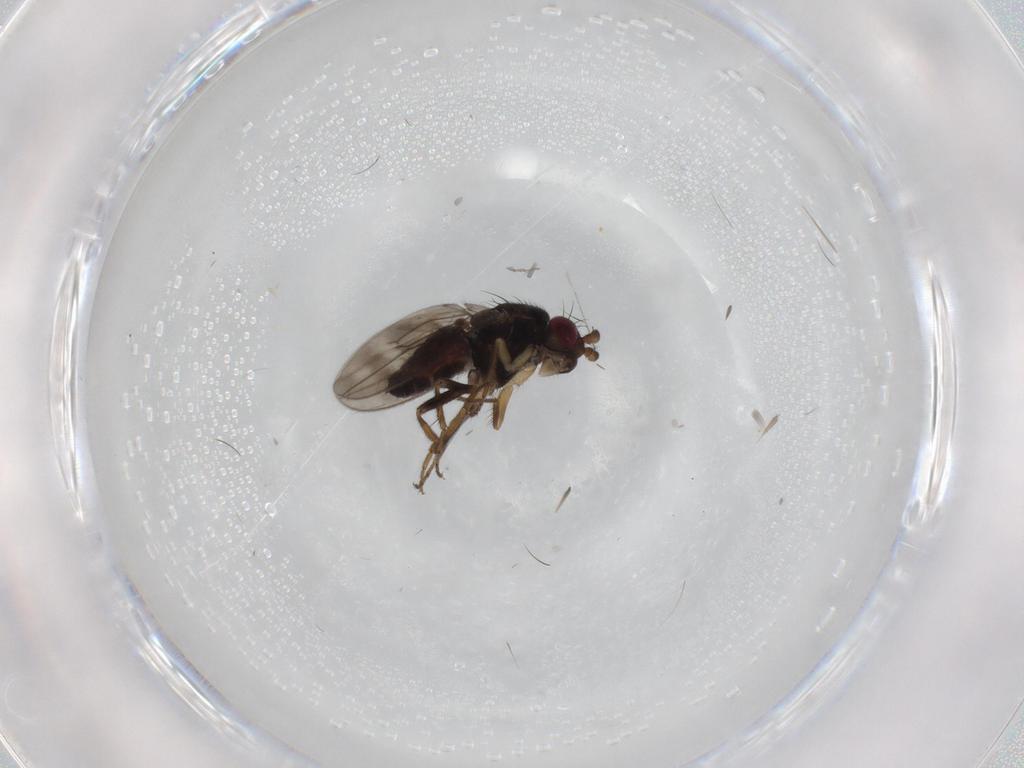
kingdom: Animalia
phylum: Arthropoda
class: Insecta
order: Diptera
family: Sphaeroceridae
